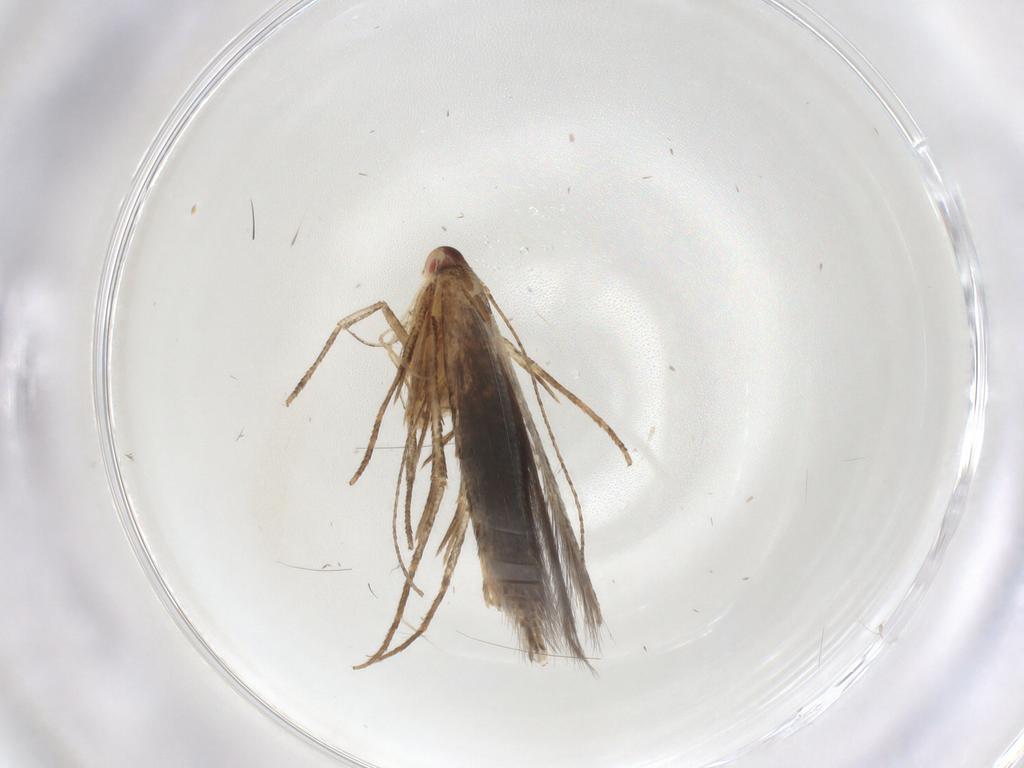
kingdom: Animalia
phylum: Arthropoda
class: Insecta
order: Lepidoptera
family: Cosmopterigidae
